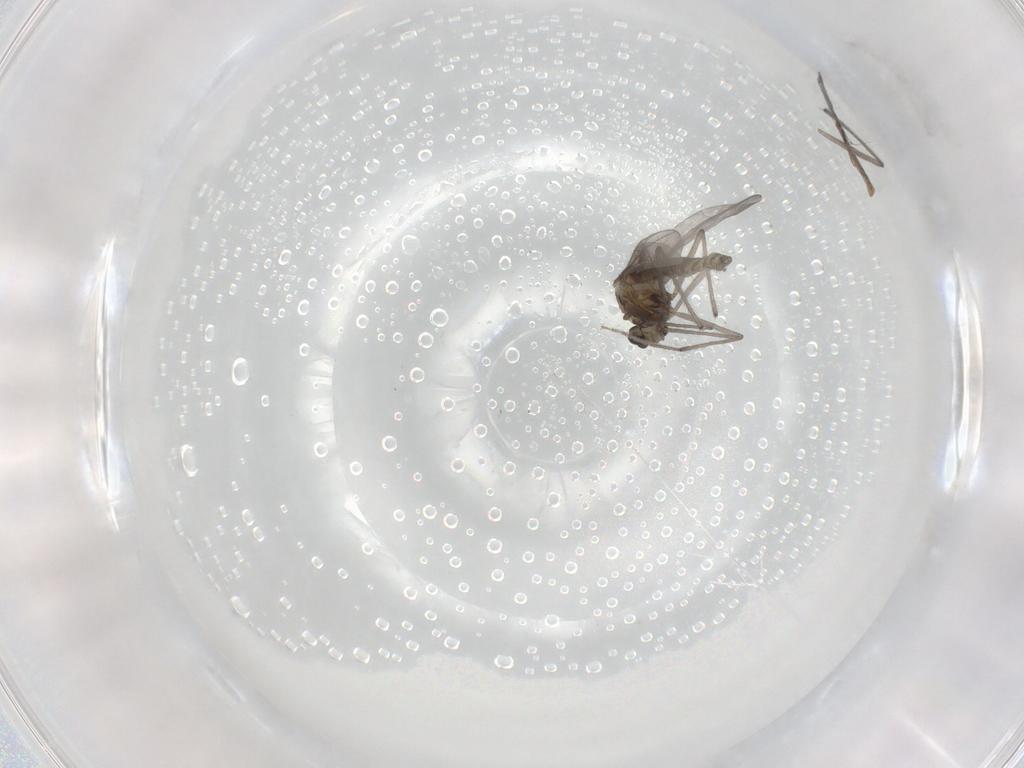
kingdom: Animalia
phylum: Arthropoda
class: Insecta
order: Diptera
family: Chironomidae
